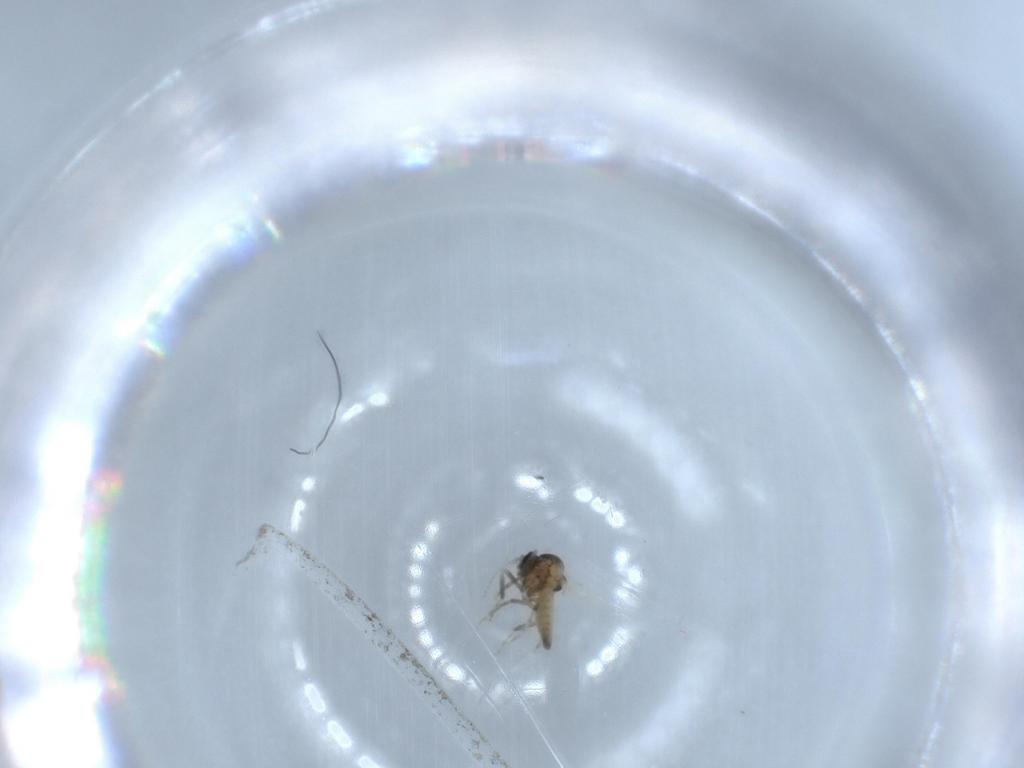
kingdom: Animalia
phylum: Arthropoda
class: Insecta
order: Diptera
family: Ceratopogonidae
